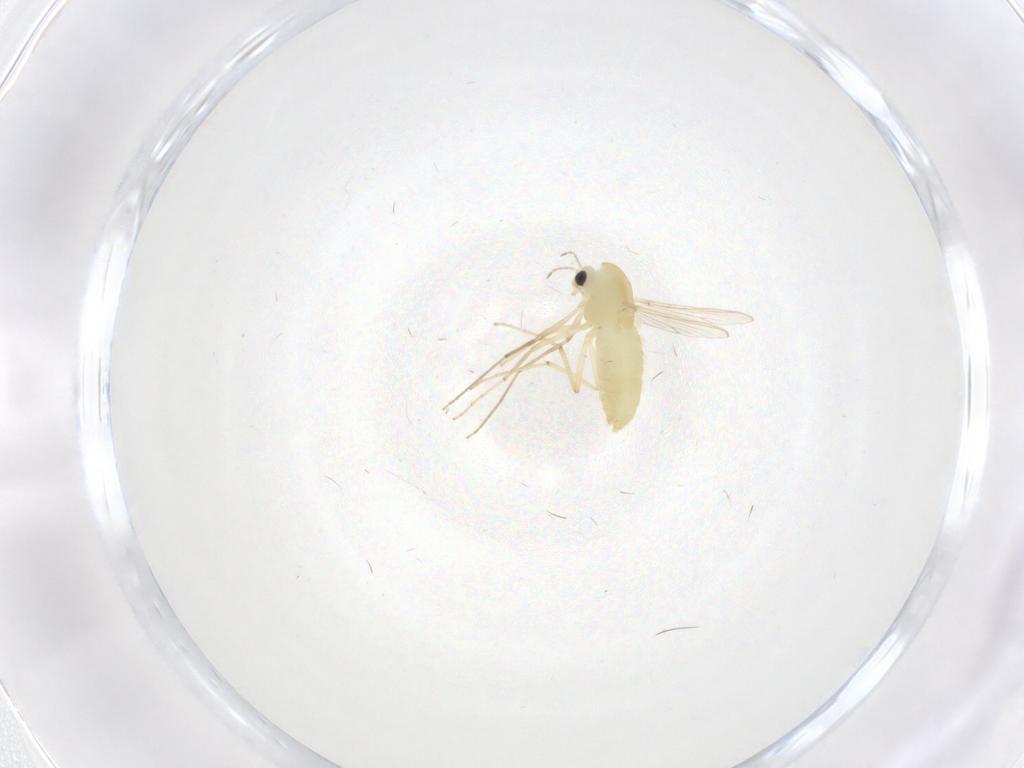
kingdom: Animalia
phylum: Arthropoda
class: Insecta
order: Diptera
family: Chironomidae
